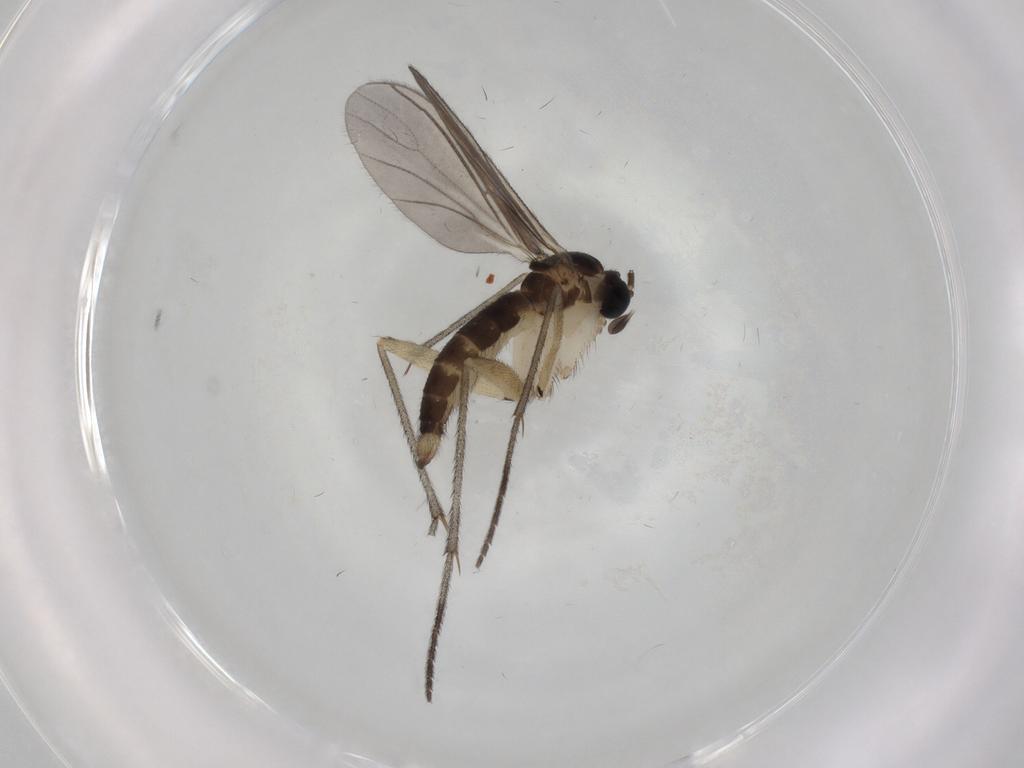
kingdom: Animalia
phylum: Arthropoda
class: Insecta
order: Diptera
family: Sciaridae
